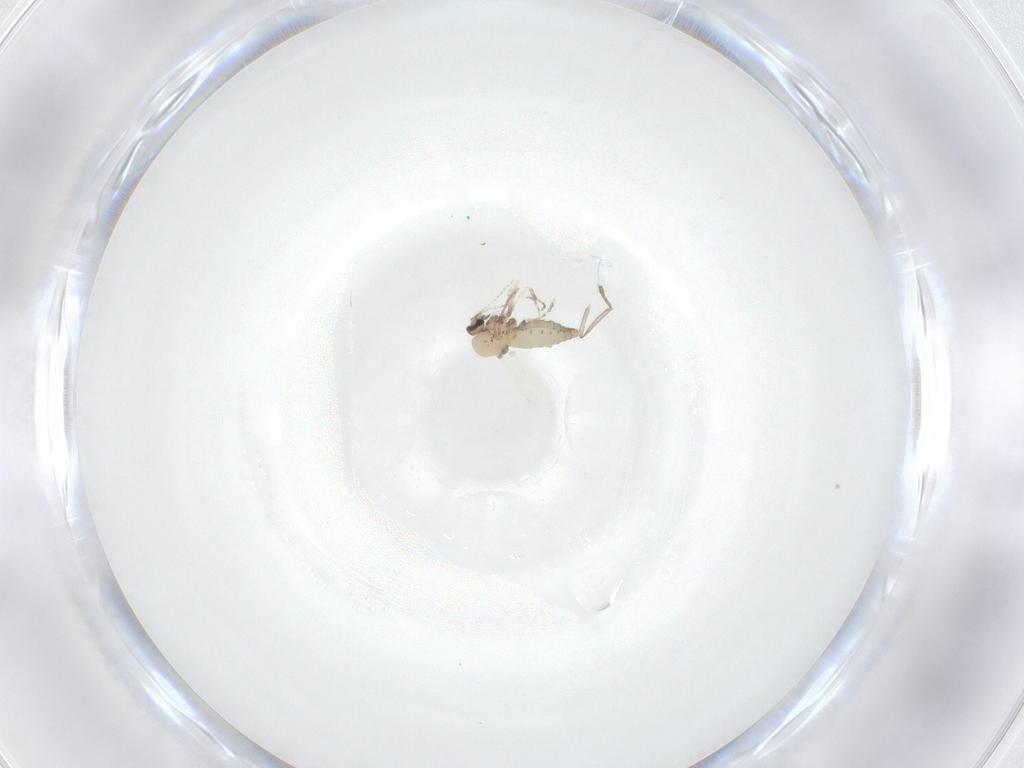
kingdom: Animalia
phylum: Arthropoda
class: Insecta
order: Diptera
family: Ceratopogonidae
